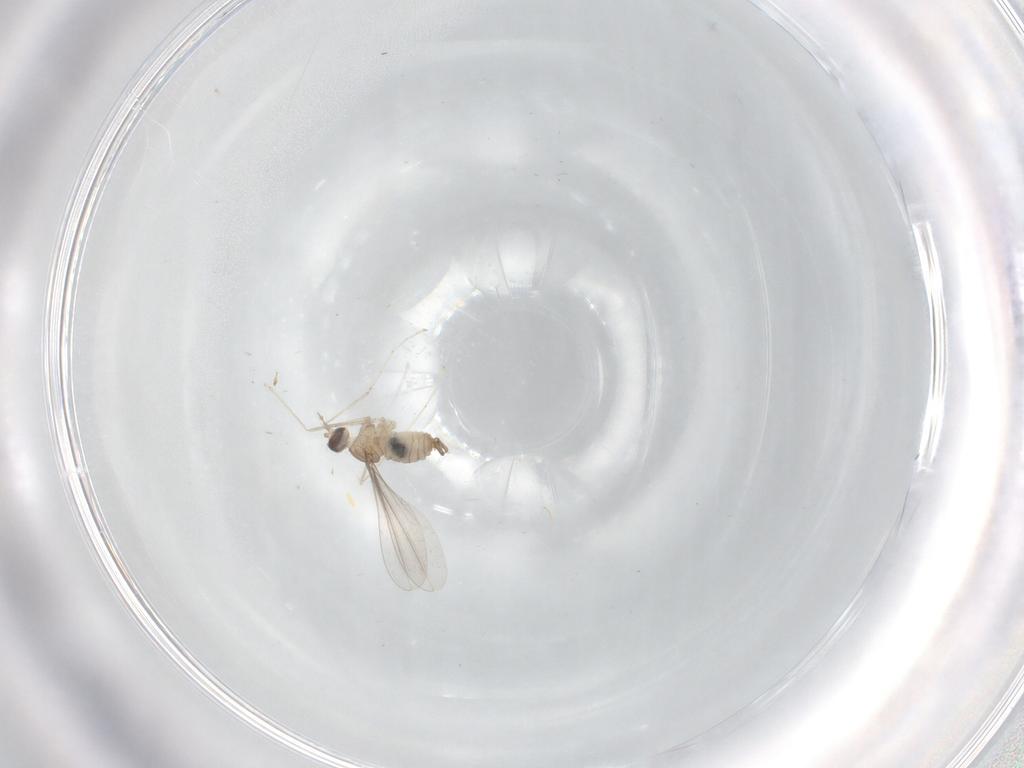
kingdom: Animalia
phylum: Arthropoda
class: Insecta
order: Diptera
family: Cecidomyiidae
